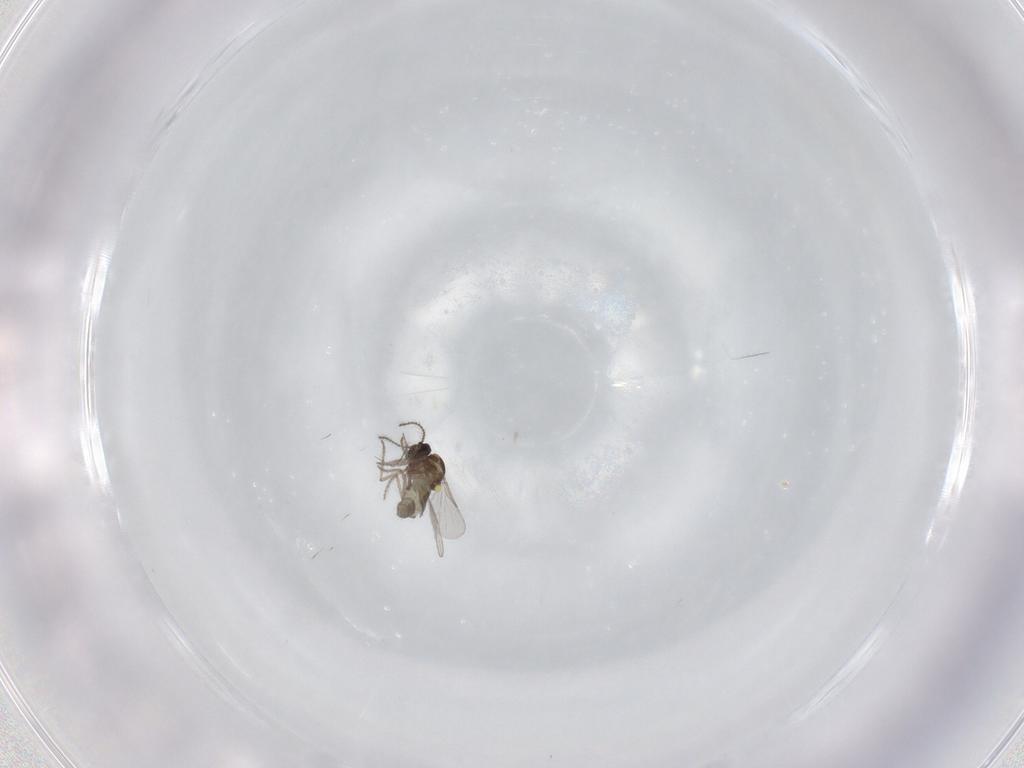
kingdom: Animalia
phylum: Arthropoda
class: Insecta
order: Diptera
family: Ceratopogonidae
